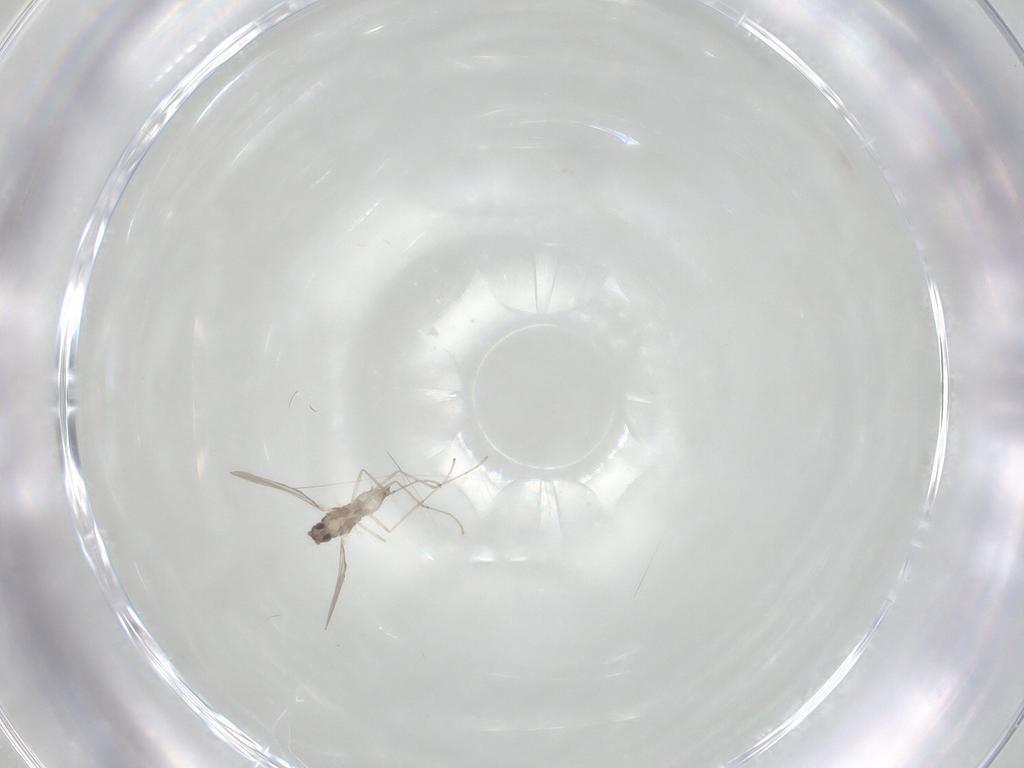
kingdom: Animalia
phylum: Arthropoda
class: Insecta
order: Diptera
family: Cecidomyiidae
